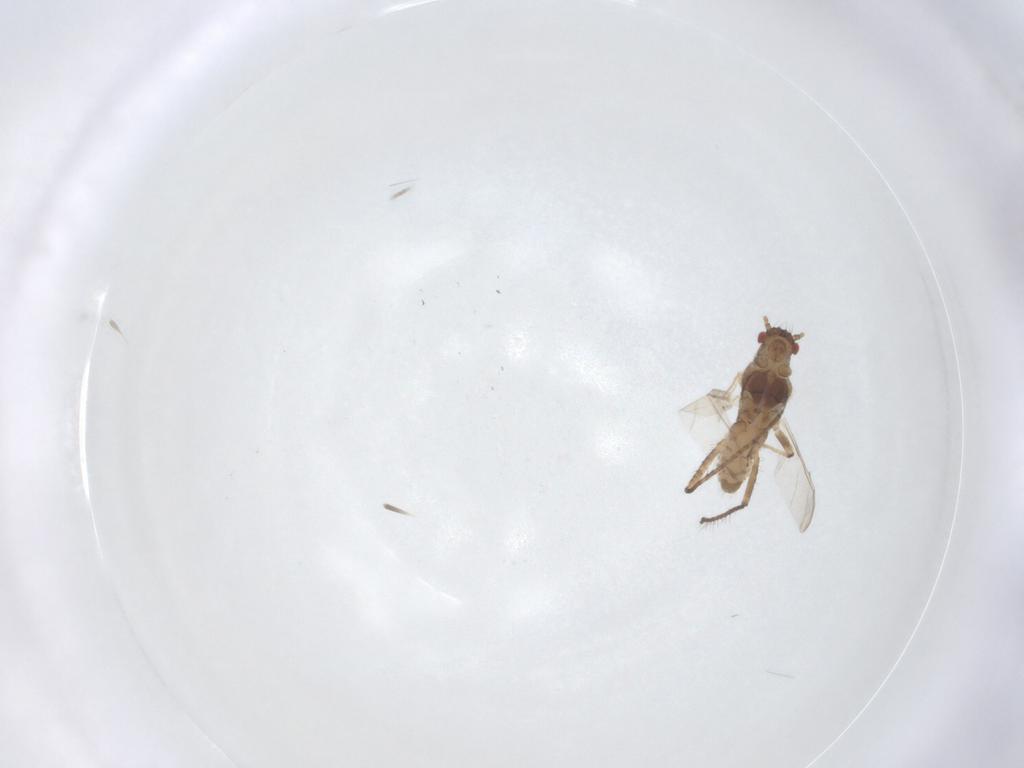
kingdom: Animalia
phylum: Arthropoda
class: Insecta
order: Hemiptera
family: Aphididae
